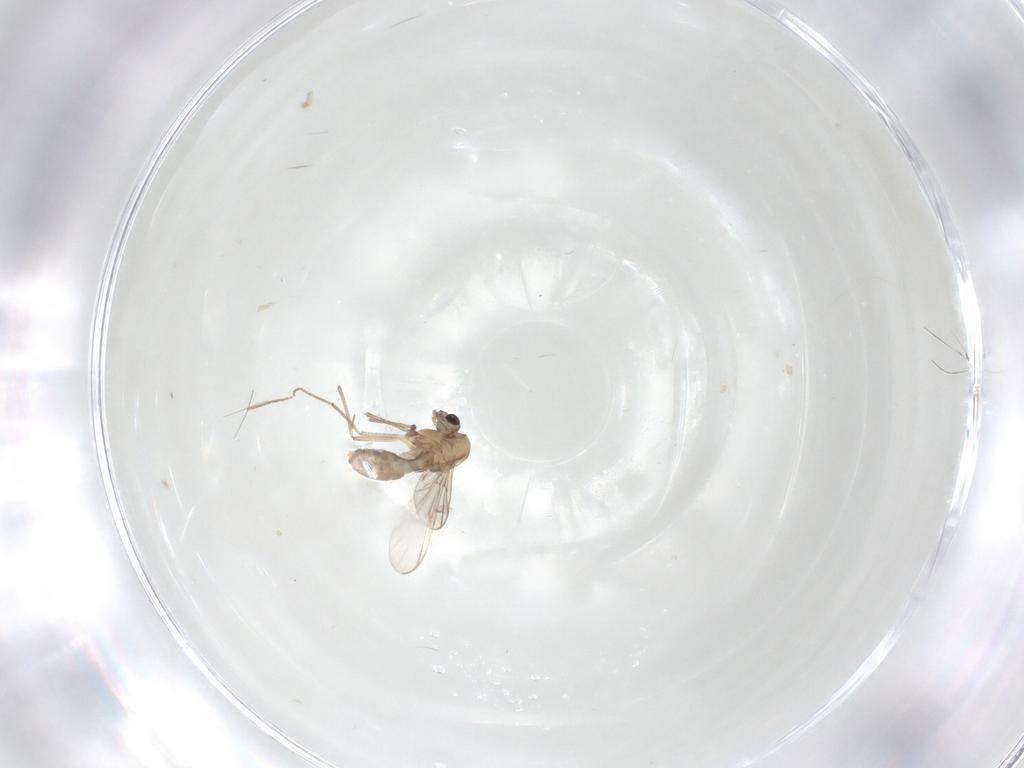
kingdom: Animalia
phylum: Arthropoda
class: Insecta
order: Diptera
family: Chironomidae
